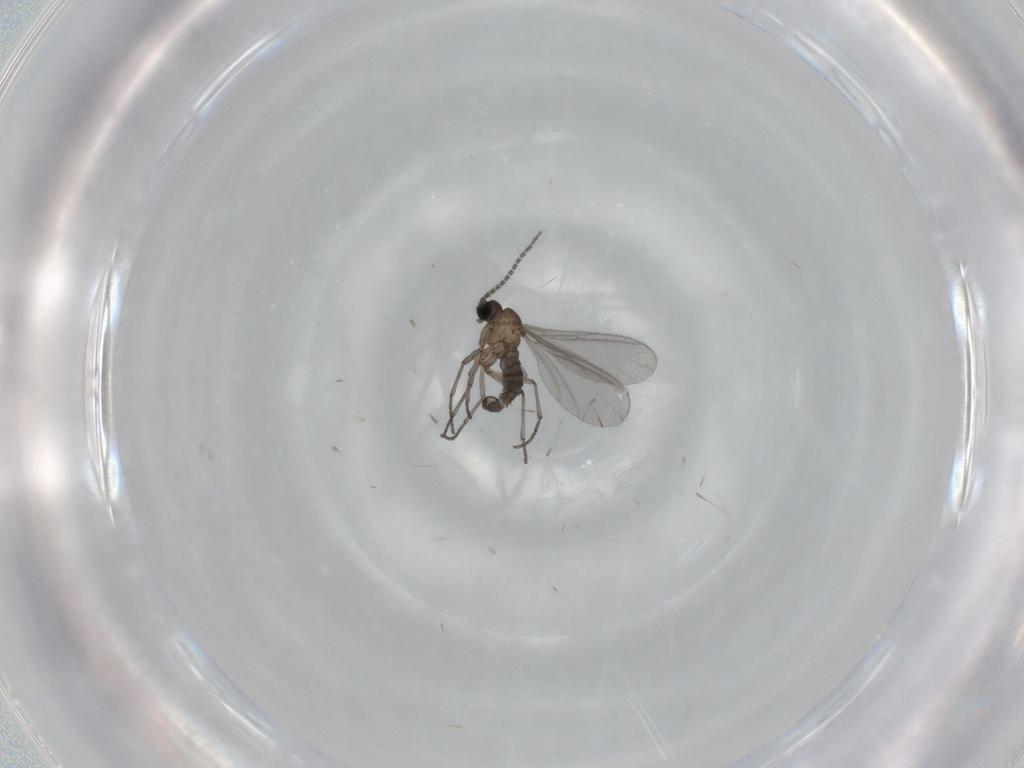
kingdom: Animalia
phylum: Arthropoda
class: Insecta
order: Diptera
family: Sciaridae
